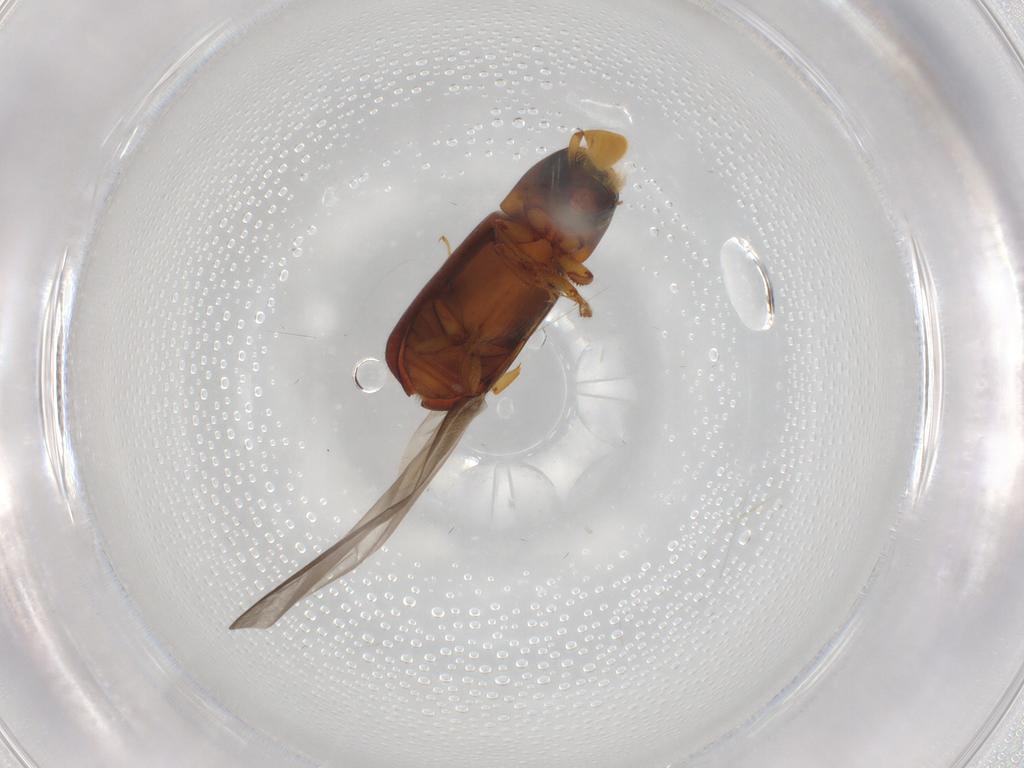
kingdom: Animalia
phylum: Arthropoda
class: Insecta
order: Coleoptera
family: Curculionidae
